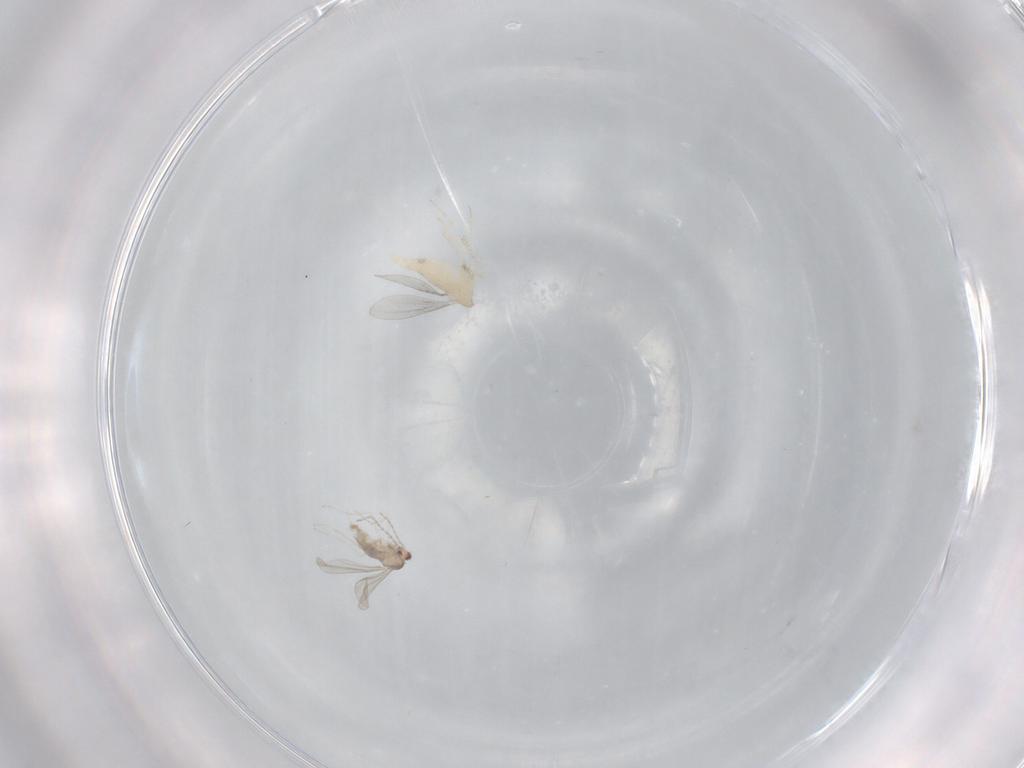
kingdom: Animalia
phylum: Arthropoda
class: Insecta
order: Diptera
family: Cecidomyiidae
